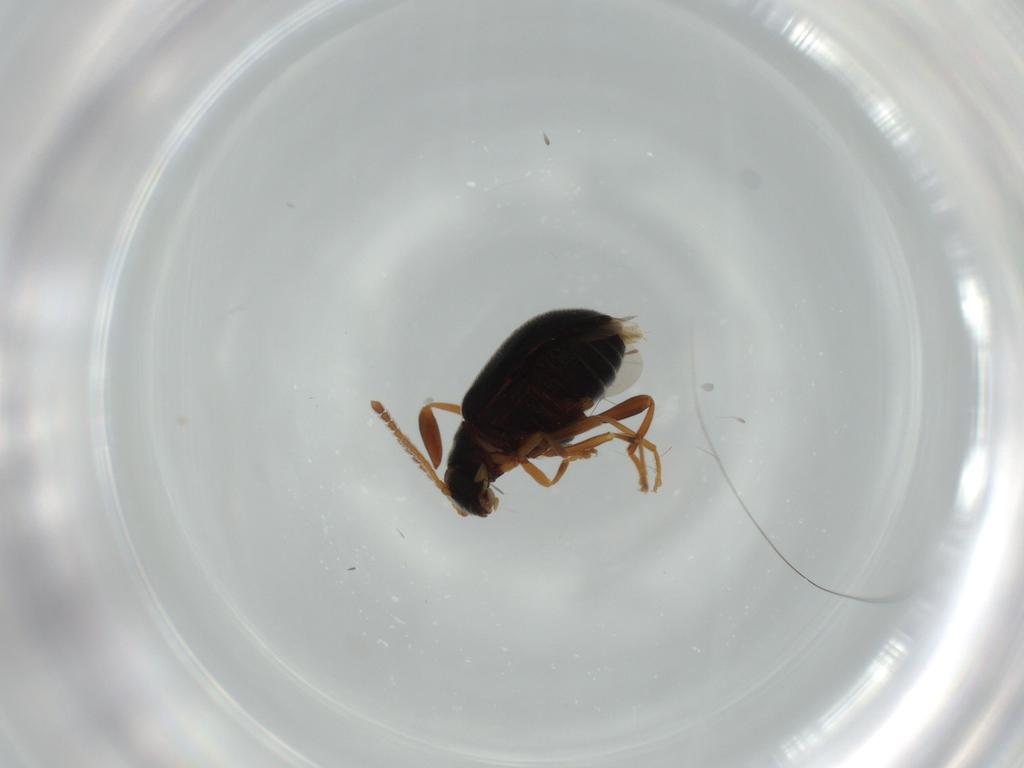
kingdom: Animalia
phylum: Arthropoda
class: Insecta
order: Coleoptera
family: Aderidae
